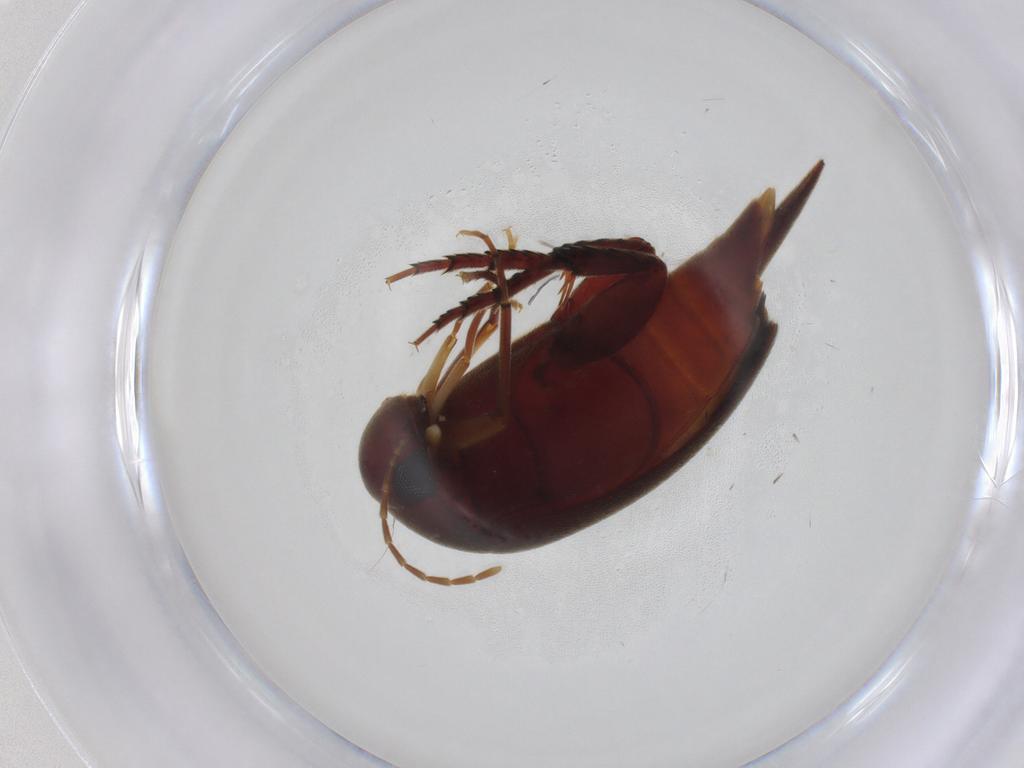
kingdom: Animalia
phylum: Arthropoda
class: Insecta
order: Coleoptera
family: Mordellidae
